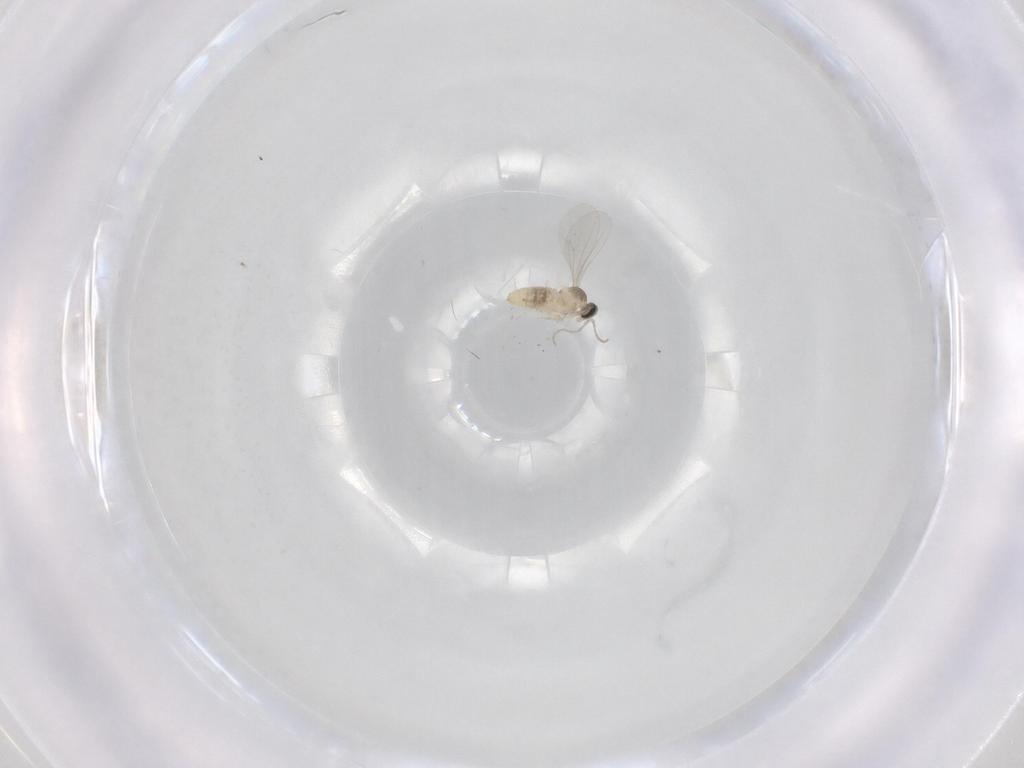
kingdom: Animalia
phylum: Arthropoda
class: Insecta
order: Diptera
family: Cecidomyiidae
